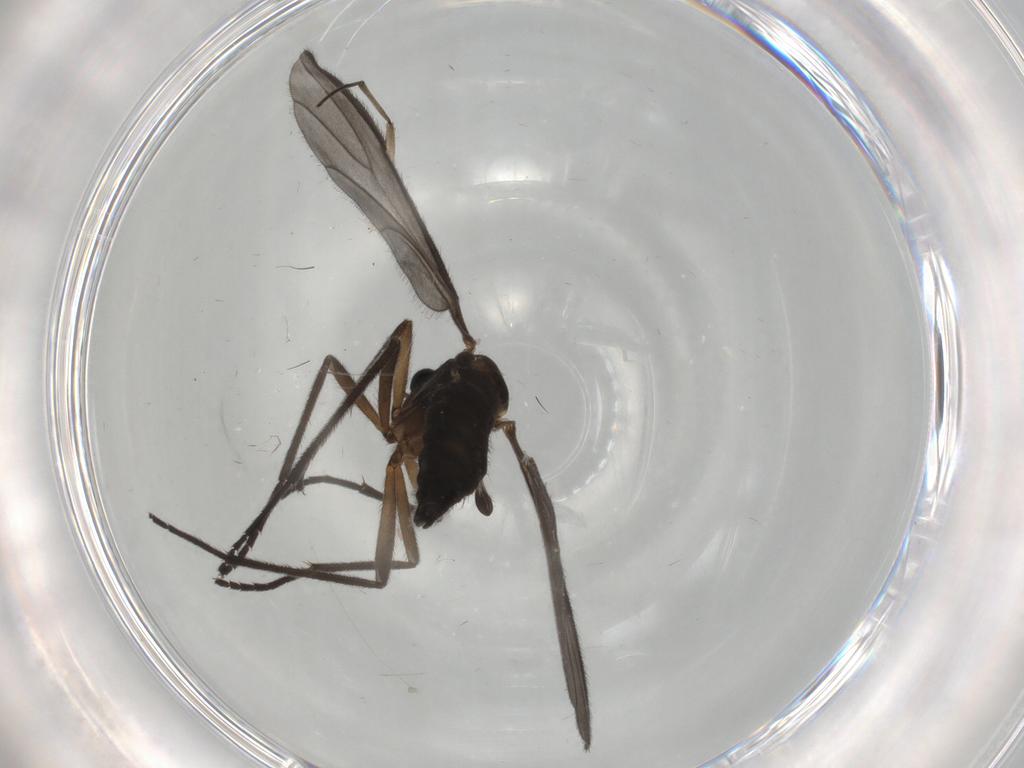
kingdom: Animalia
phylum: Arthropoda
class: Insecta
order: Diptera
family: Sciaridae
